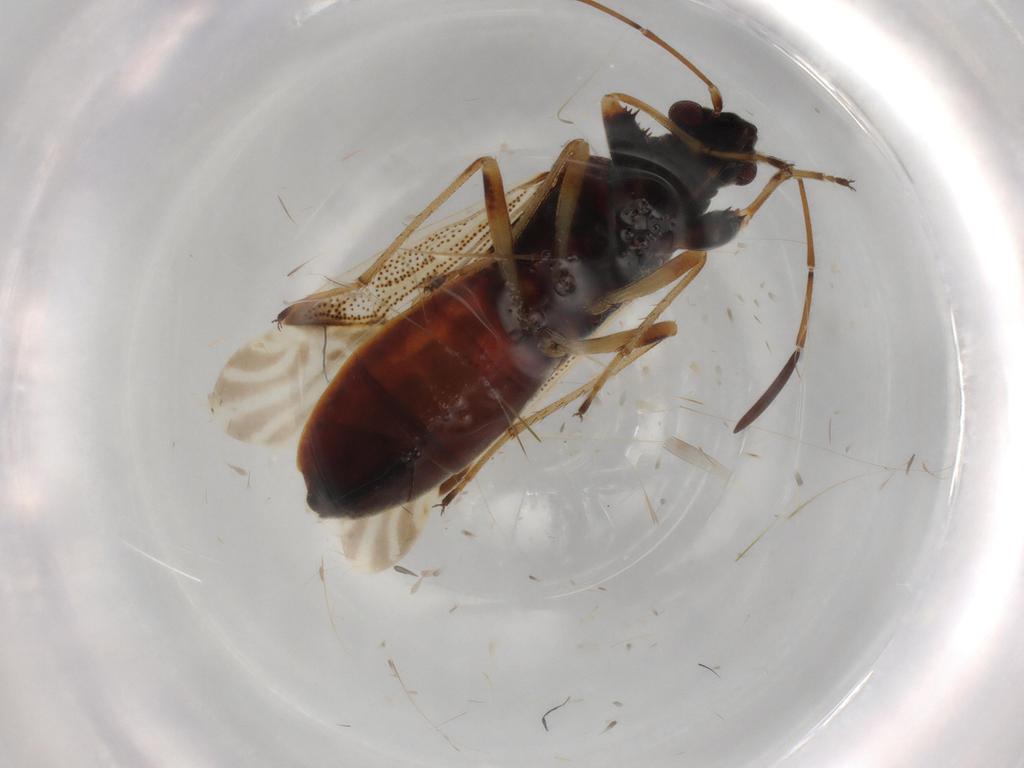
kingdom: Animalia
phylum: Arthropoda
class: Insecta
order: Hemiptera
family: Rhyparochromidae
